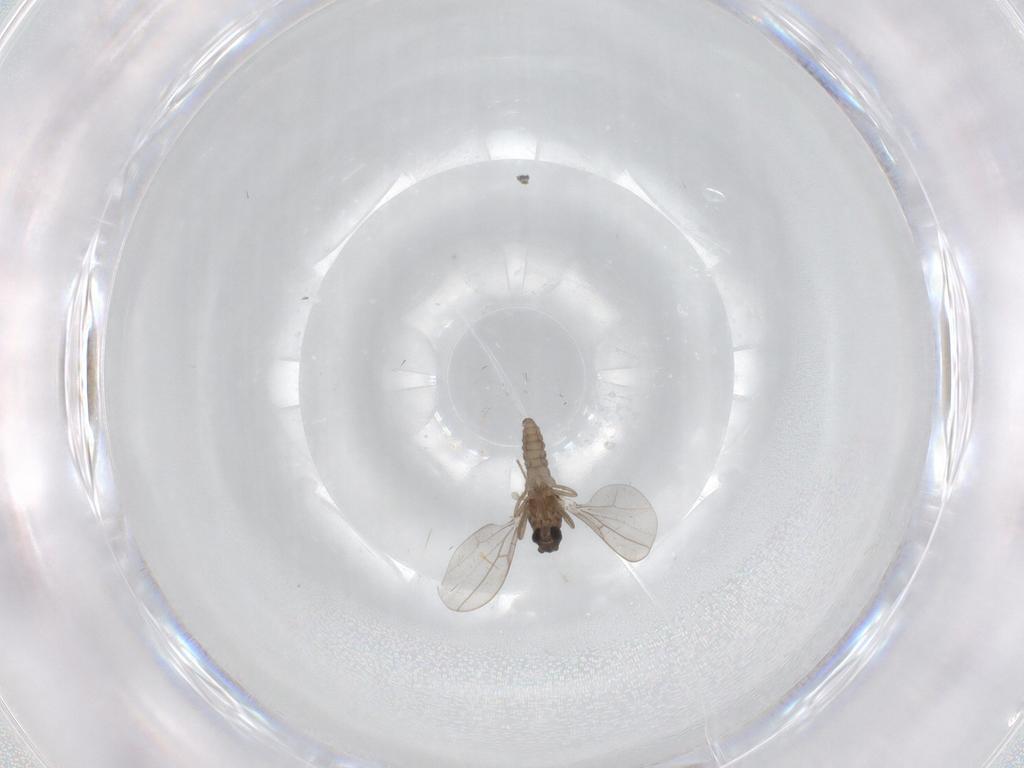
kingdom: Animalia
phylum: Arthropoda
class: Insecta
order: Diptera
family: Cecidomyiidae
